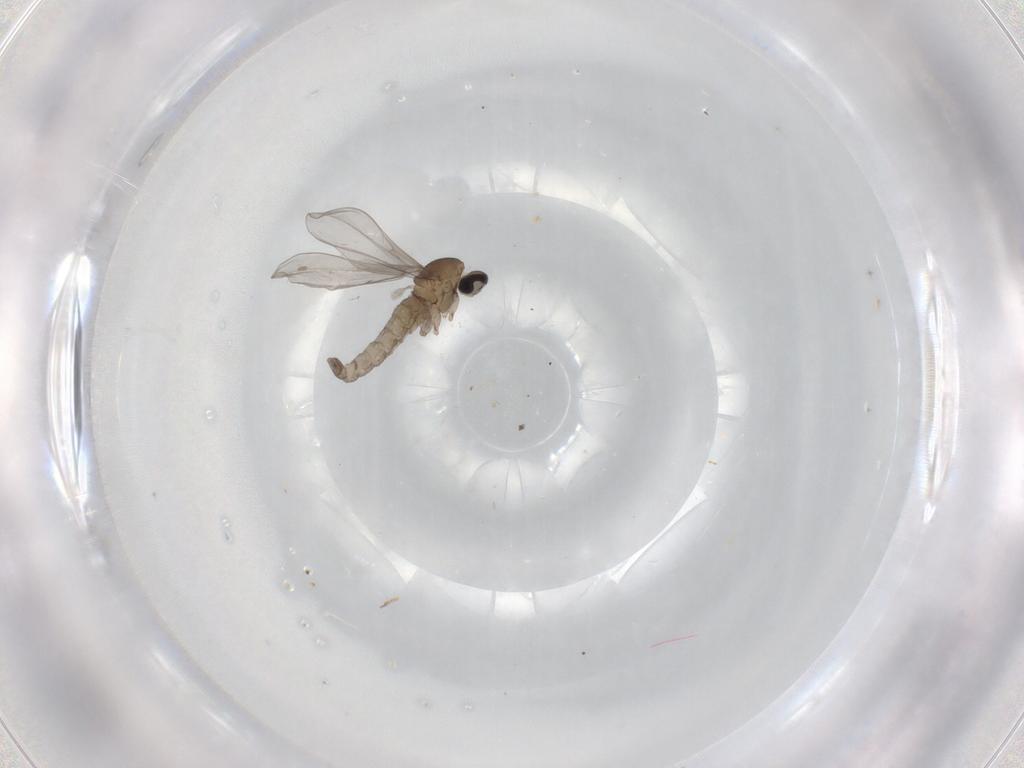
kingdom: Animalia
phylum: Arthropoda
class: Insecta
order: Diptera
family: Cecidomyiidae
